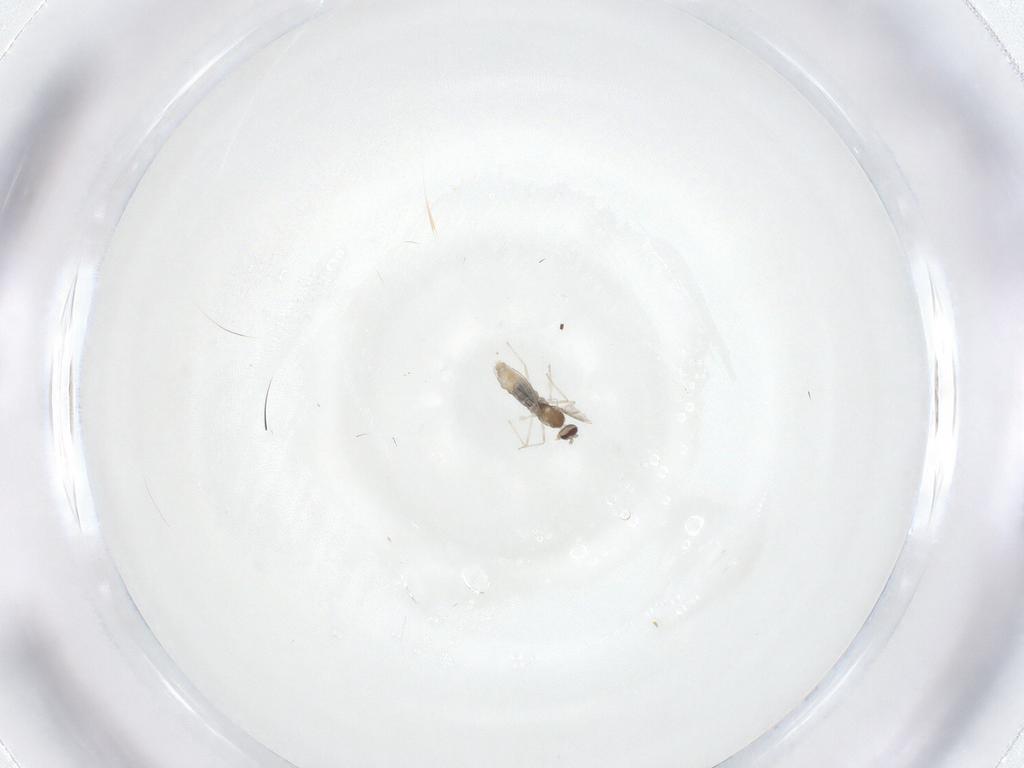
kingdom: Animalia
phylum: Arthropoda
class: Insecta
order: Diptera
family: Cecidomyiidae
